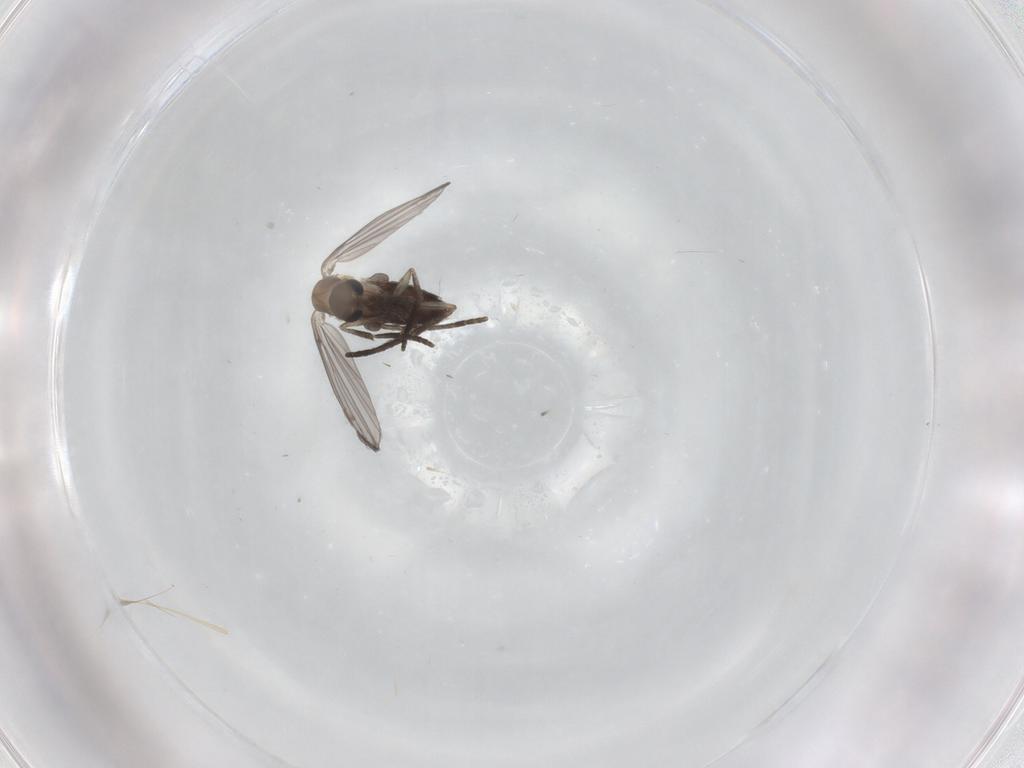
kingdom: Animalia
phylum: Arthropoda
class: Insecta
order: Diptera
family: Psychodidae
